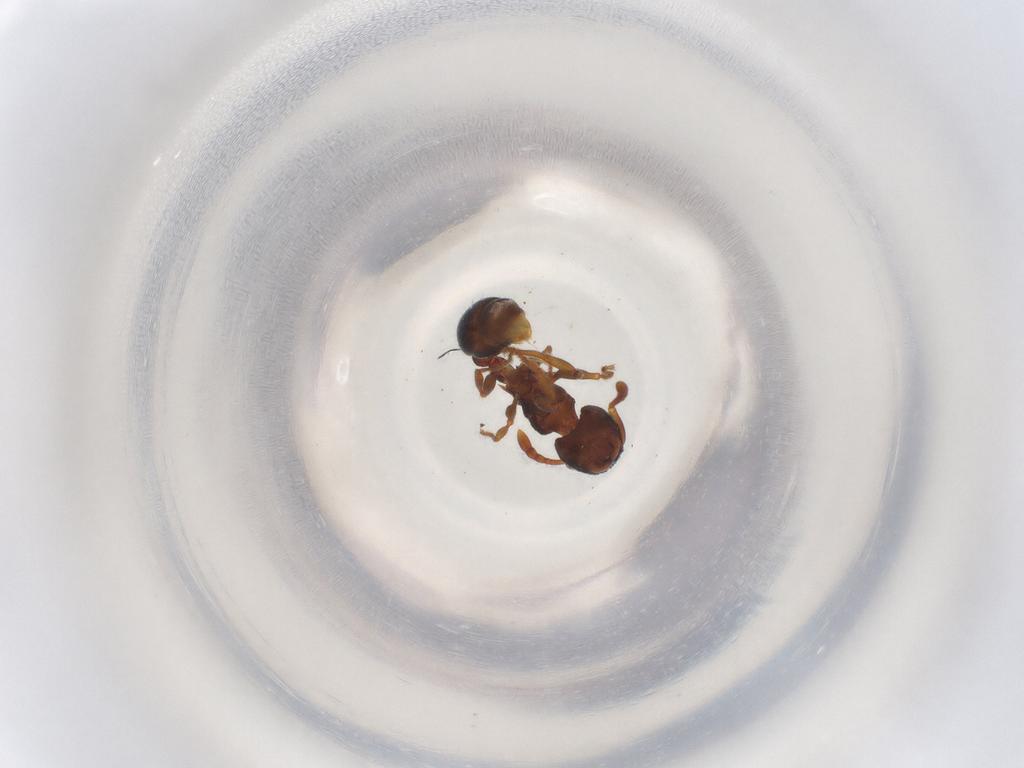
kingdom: Animalia
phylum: Arthropoda
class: Insecta
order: Hymenoptera
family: Formicidae
